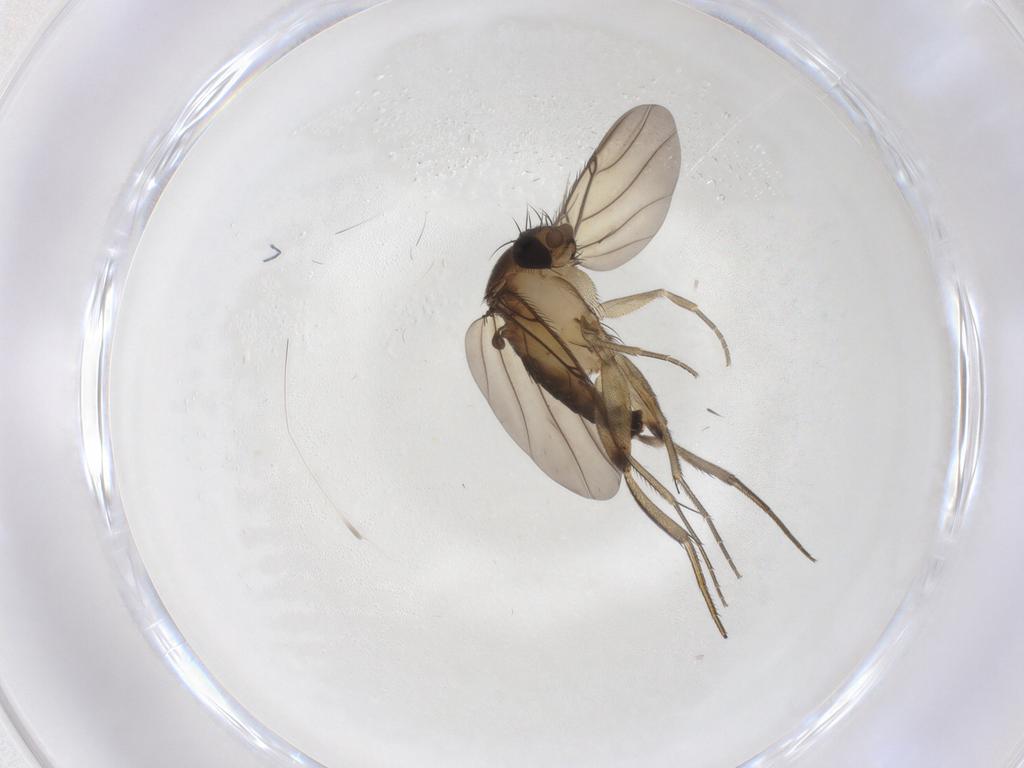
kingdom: Animalia
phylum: Arthropoda
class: Insecta
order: Diptera
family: Phoridae
